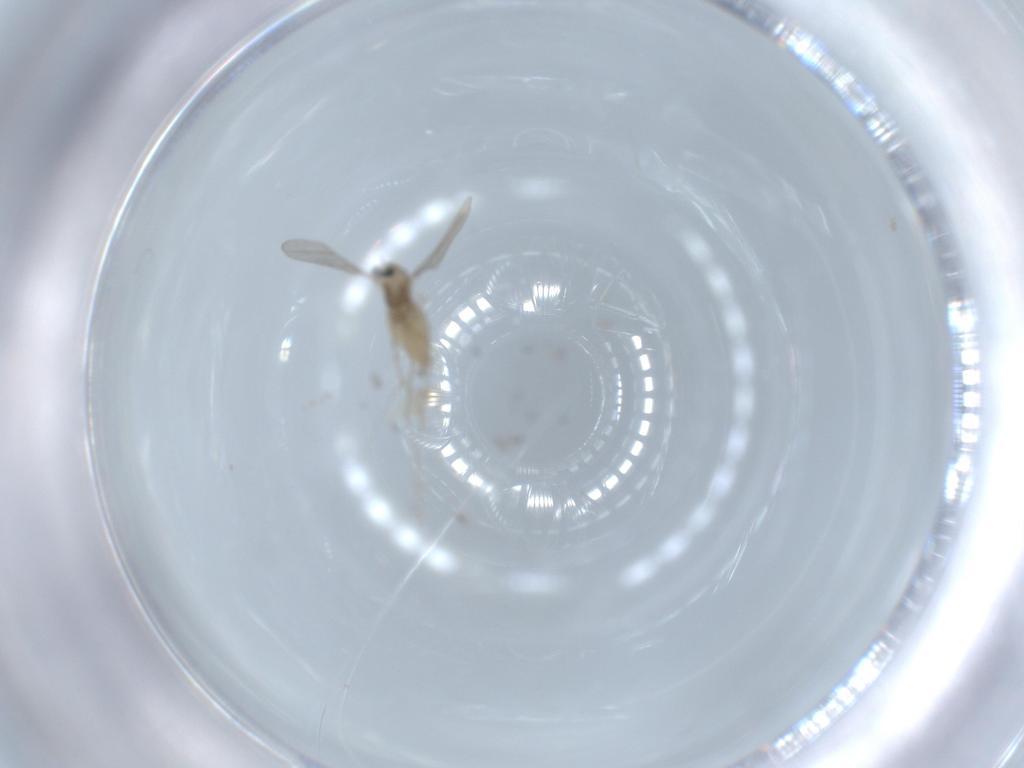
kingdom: Animalia
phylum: Arthropoda
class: Insecta
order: Diptera
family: Cecidomyiidae
